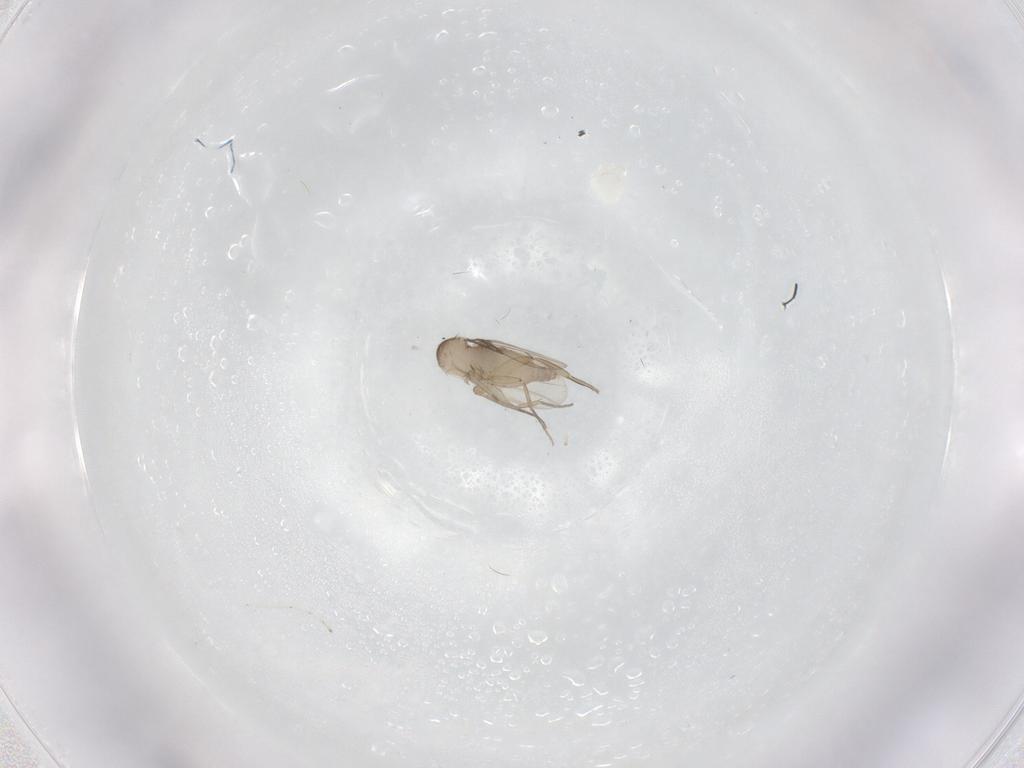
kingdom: Animalia
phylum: Arthropoda
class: Insecta
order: Diptera
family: Phoridae
